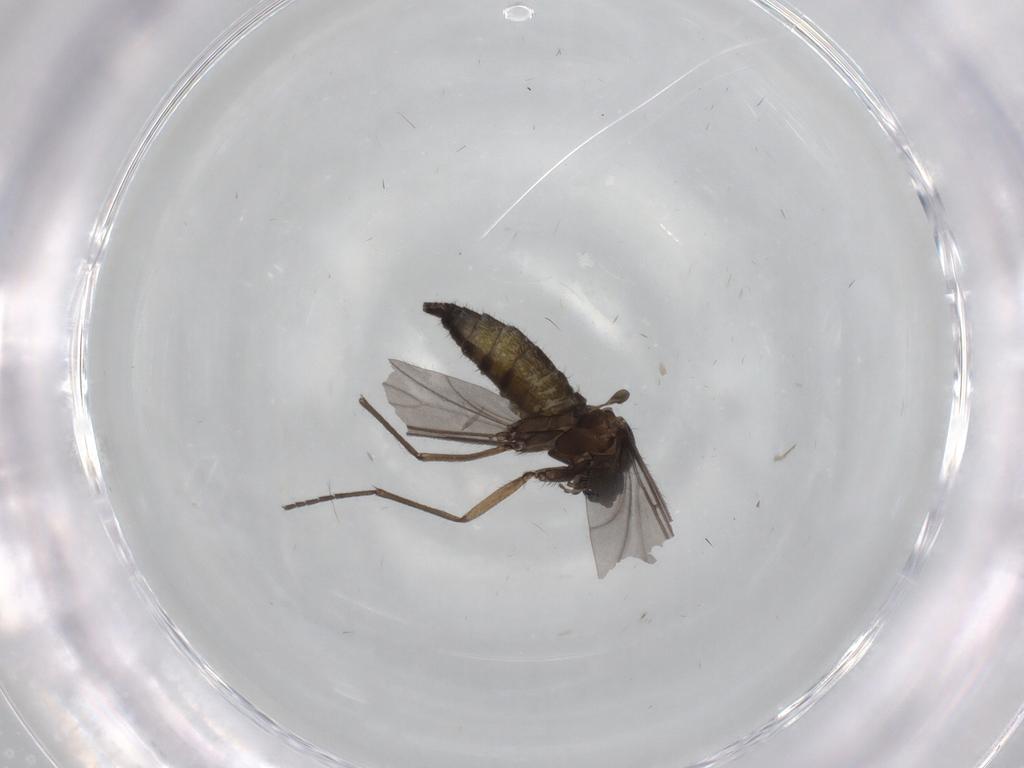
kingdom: Animalia
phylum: Arthropoda
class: Insecta
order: Diptera
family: Sciaridae
